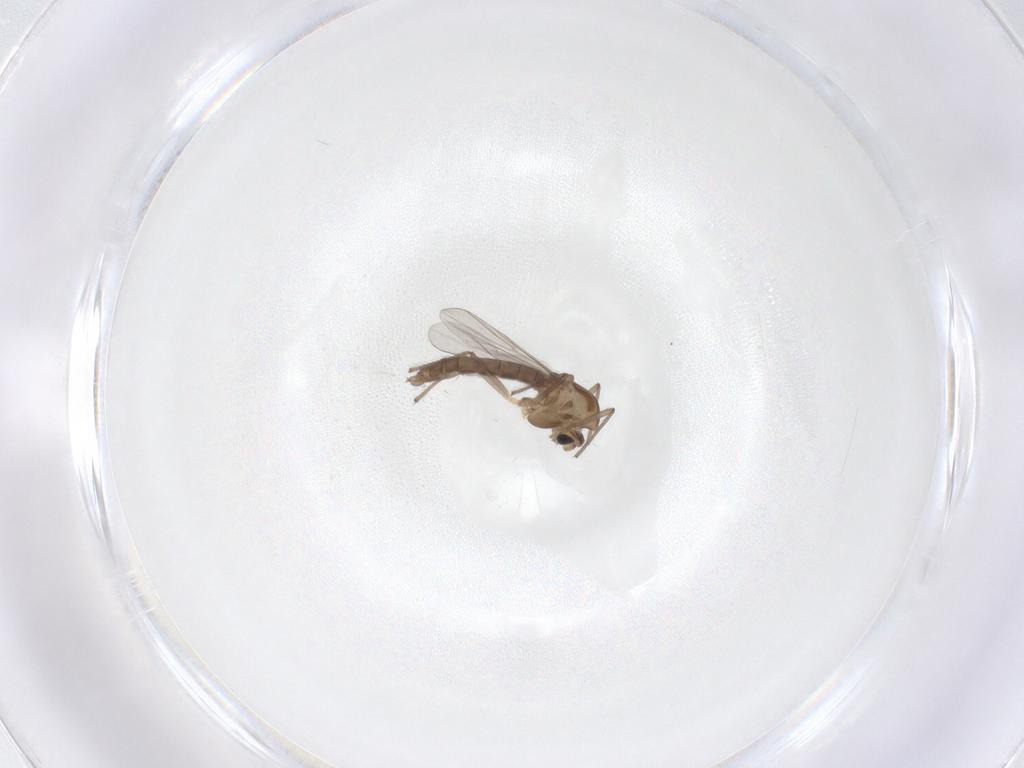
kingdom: Animalia
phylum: Arthropoda
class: Insecta
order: Diptera
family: Chironomidae
